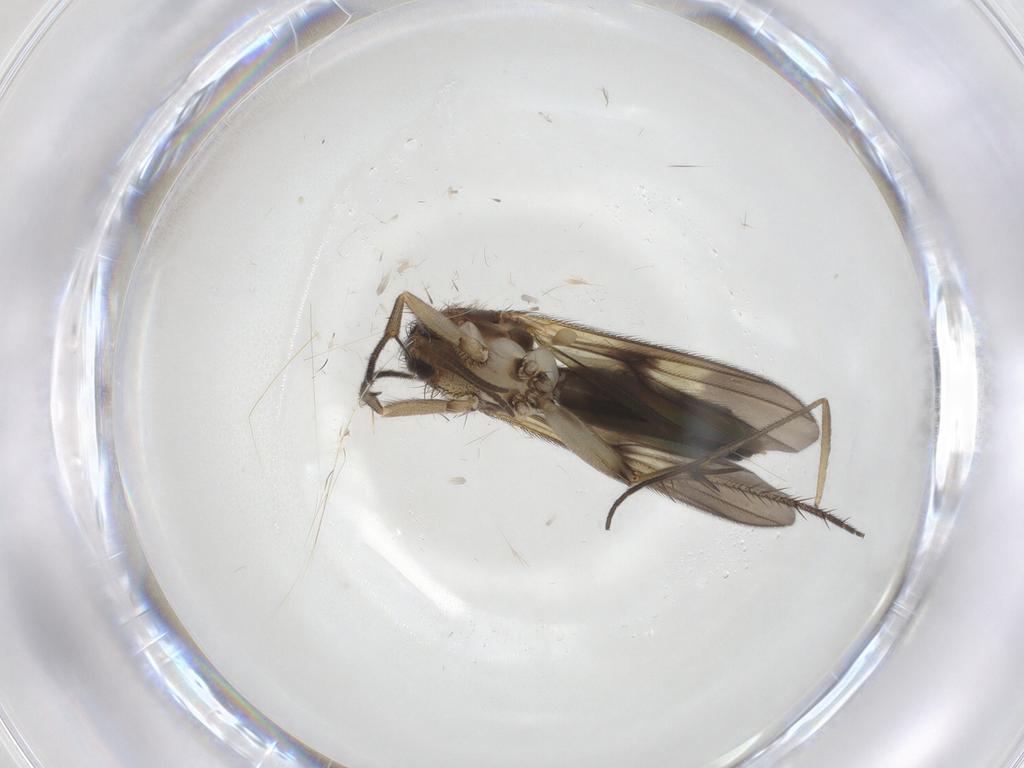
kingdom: Animalia
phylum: Arthropoda
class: Insecta
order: Diptera
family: Sciaridae
